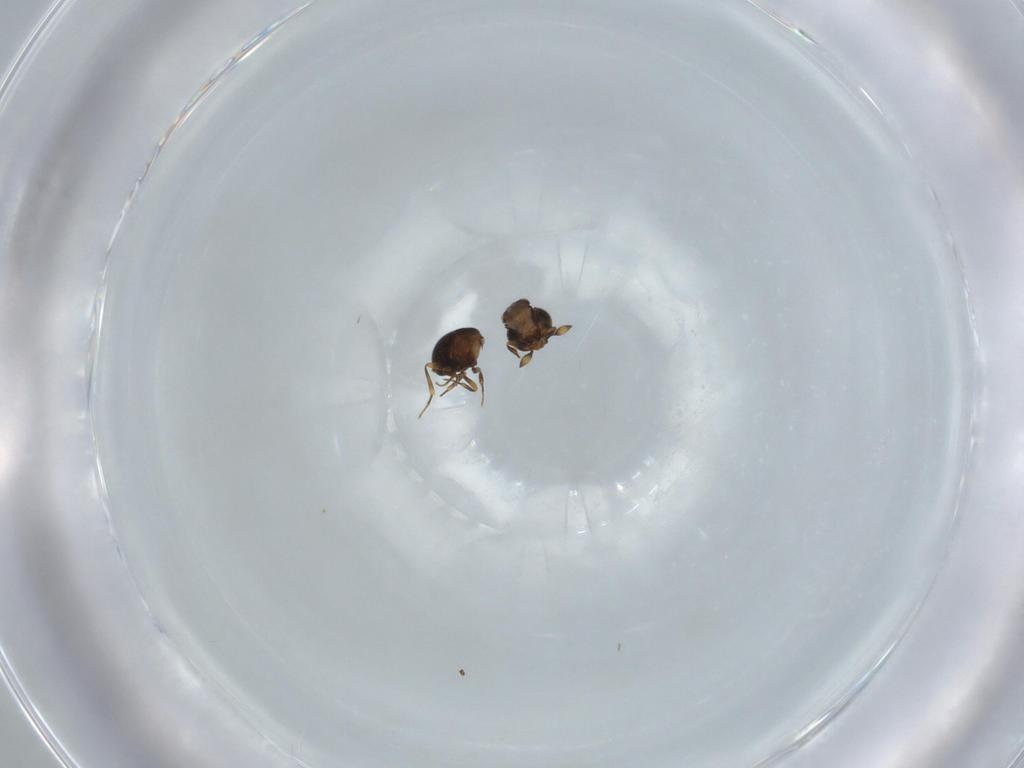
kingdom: Animalia
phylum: Arthropoda
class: Insecta
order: Hymenoptera
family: Scelionidae
